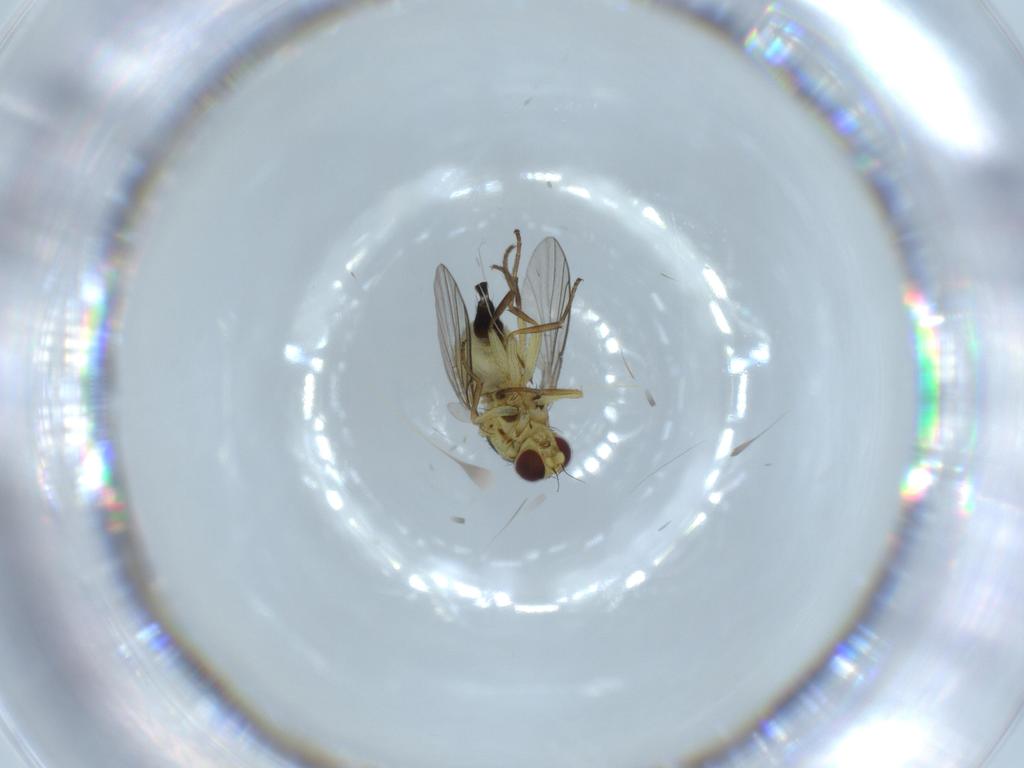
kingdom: Animalia
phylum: Arthropoda
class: Insecta
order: Diptera
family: Agromyzidae
